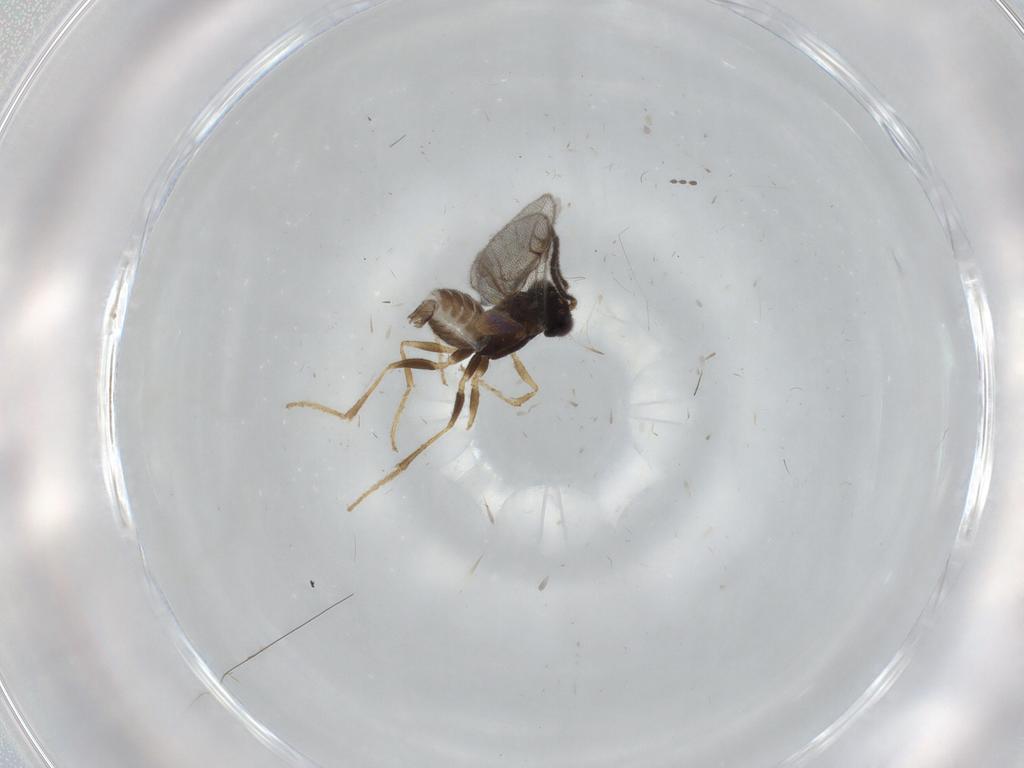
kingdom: Animalia
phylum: Arthropoda
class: Insecta
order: Hymenoptera
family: Dryinidae
